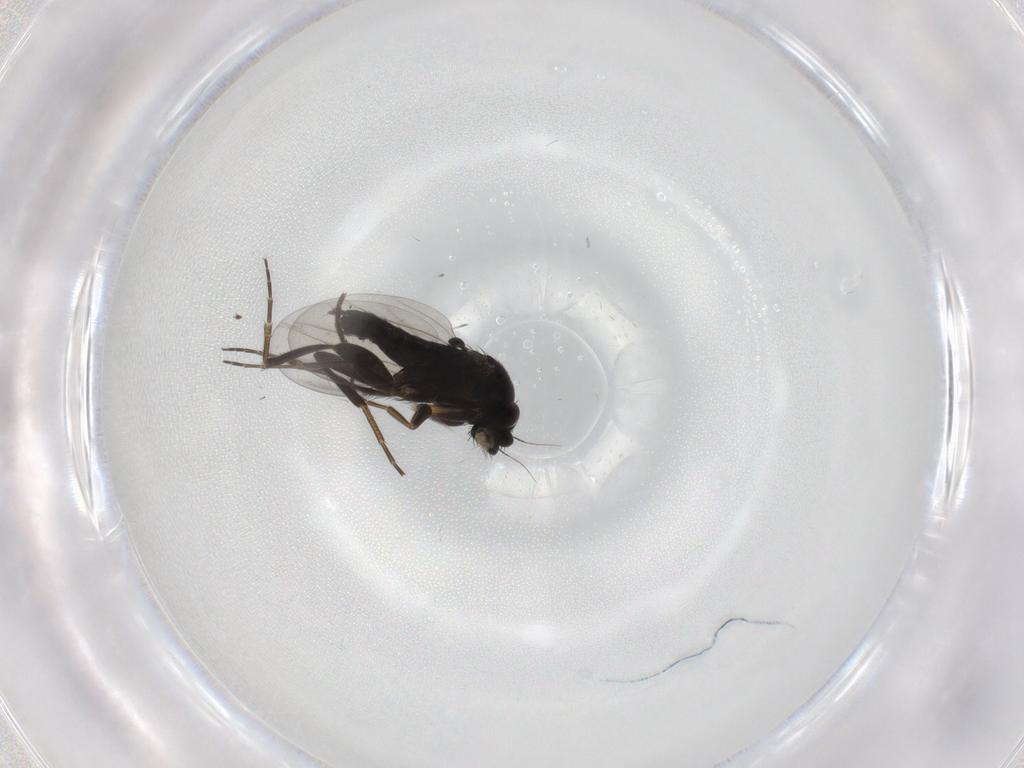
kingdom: Animalia
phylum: Arthropoda
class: Insecta
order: Diptera
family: Phoridae
